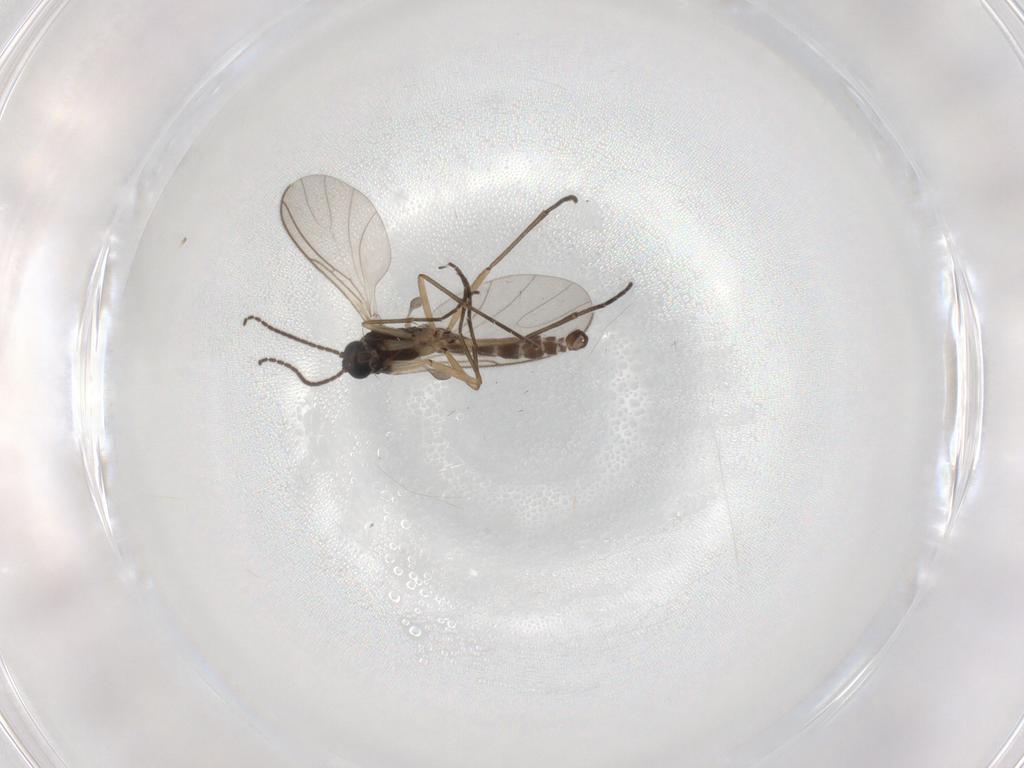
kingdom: Animalia
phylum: Arthropoda
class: Insecta
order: Diptera
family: Sciaridae
